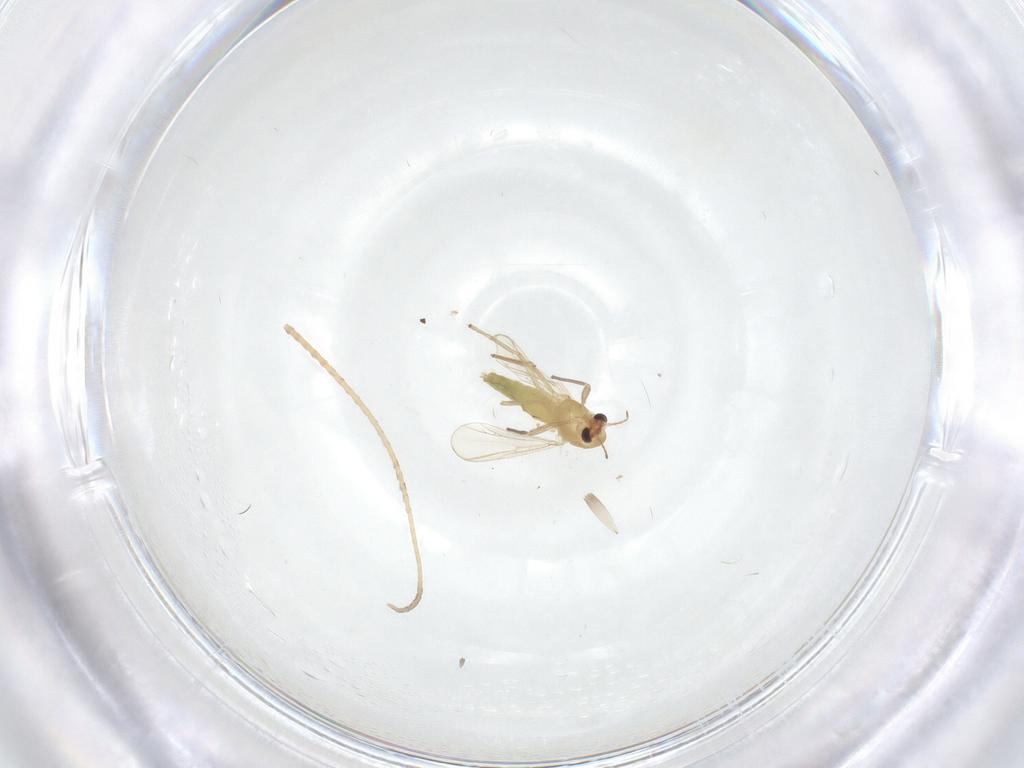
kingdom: Animalia
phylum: Arthropoda
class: Insecta
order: Diptera
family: Chironomidae
